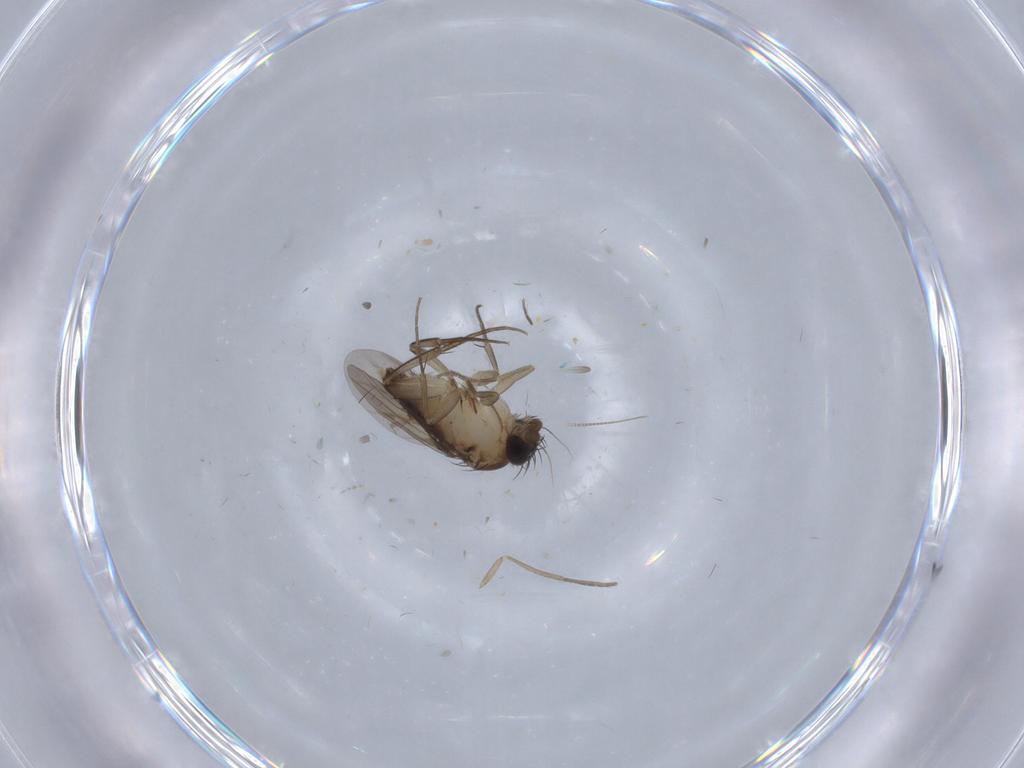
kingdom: Animalia
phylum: Arthropoda
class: Insecta
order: Diptera
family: Phoridae
